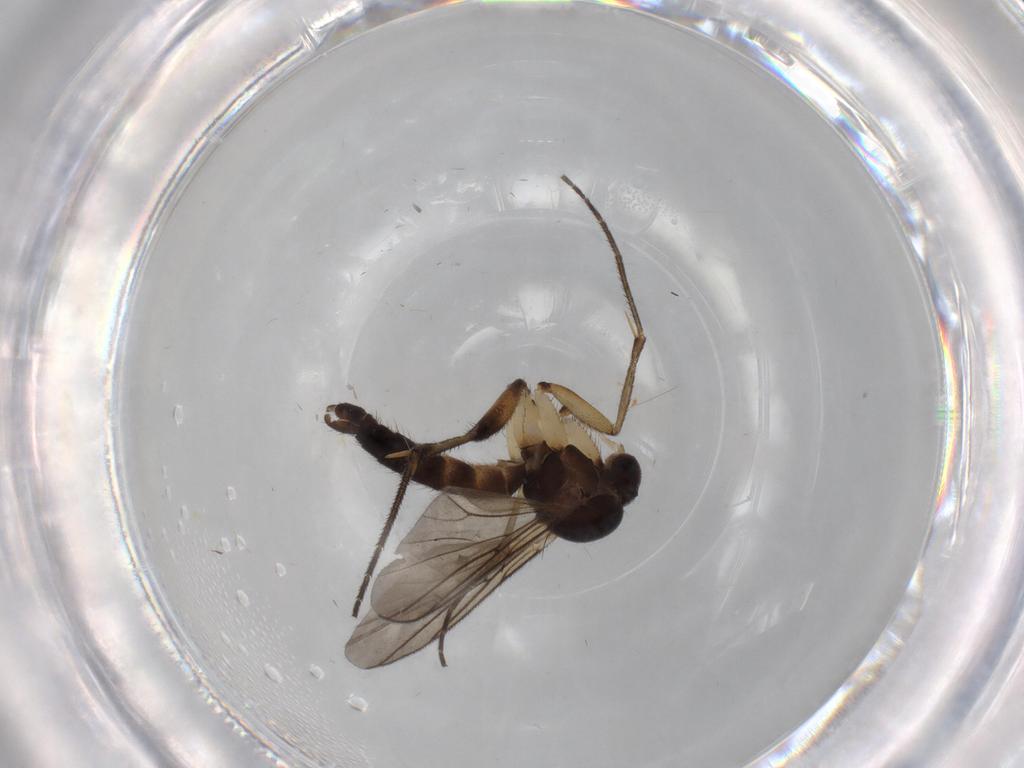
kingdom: Animalia
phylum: Arthropoda
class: Insecta
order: Diptera
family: Mycetophilidae
